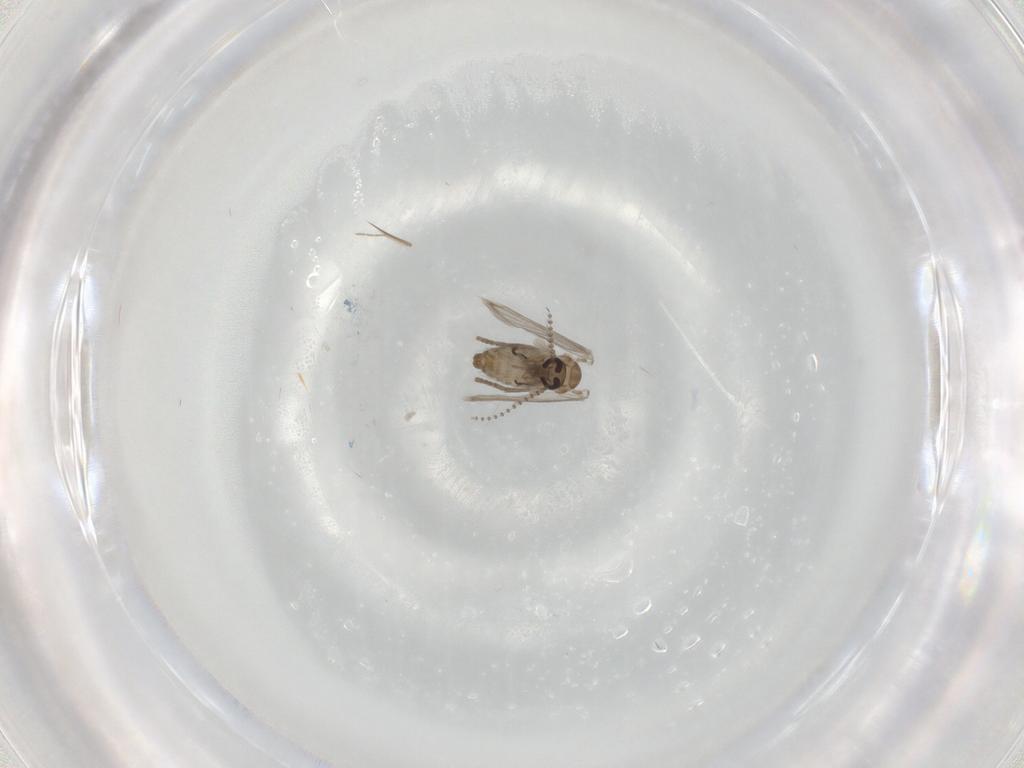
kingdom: Animalia
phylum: Arthropoda
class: Insecta
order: Diptera
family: Psychodidae
